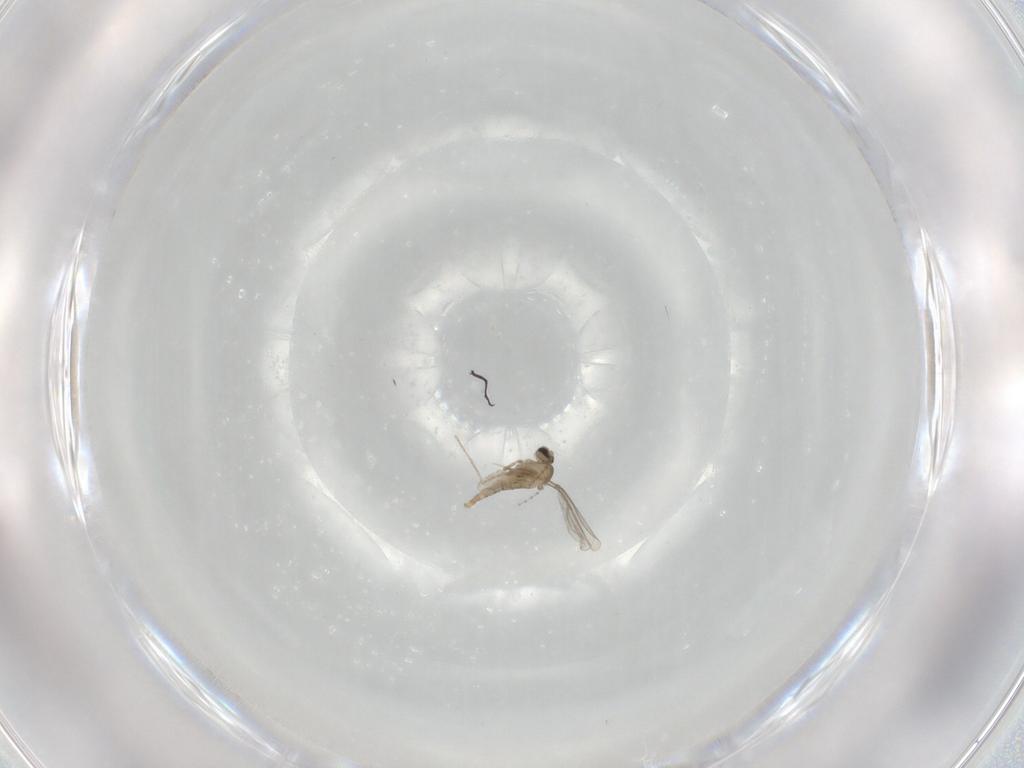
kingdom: Animalia
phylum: Arthropoda
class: Insecta
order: Diptera
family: Cecidomyiidae
